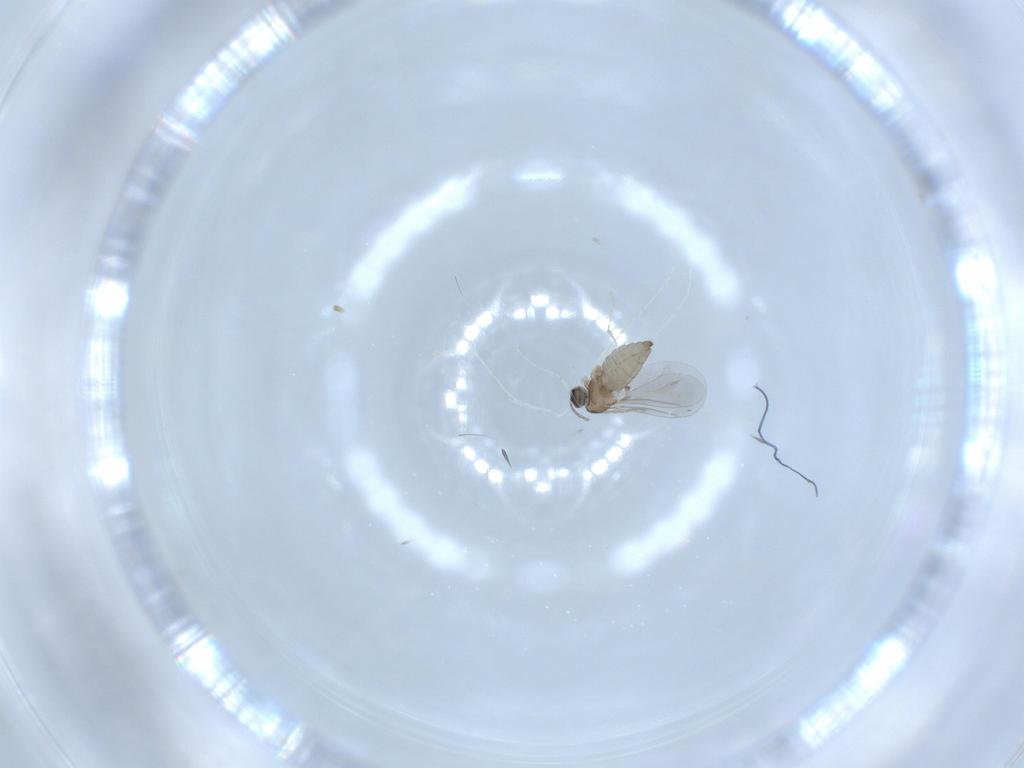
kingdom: Animalia
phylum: Arthropoda
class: Insecta
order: Diptera
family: Cecidomyiidae
